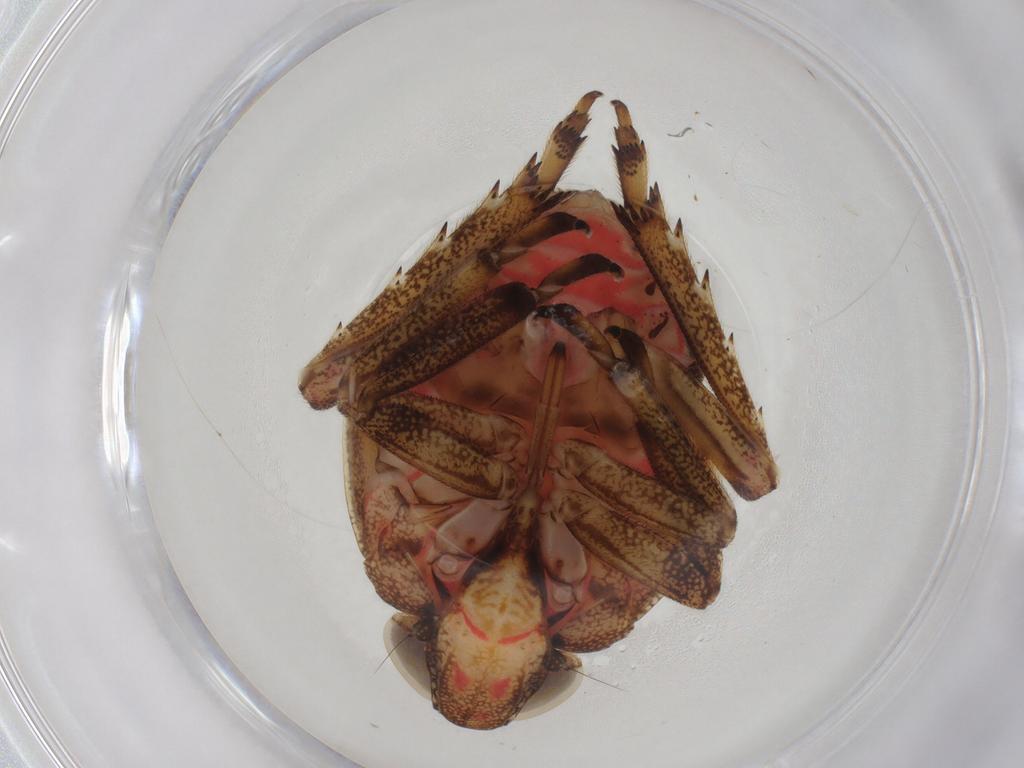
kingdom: Animalia
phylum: Arthropoda
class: Insecta
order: Hemiptera
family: Issidae
